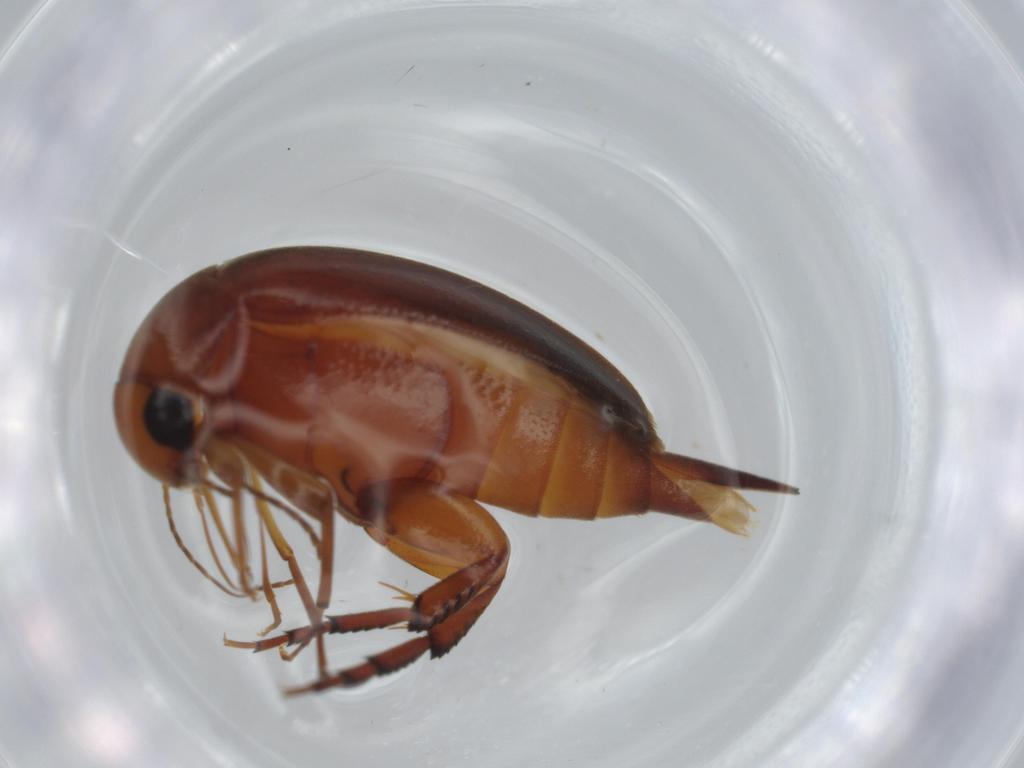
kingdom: Animalia
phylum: Arthropoda
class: Insecta
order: Coleoptera
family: Mordellidae
